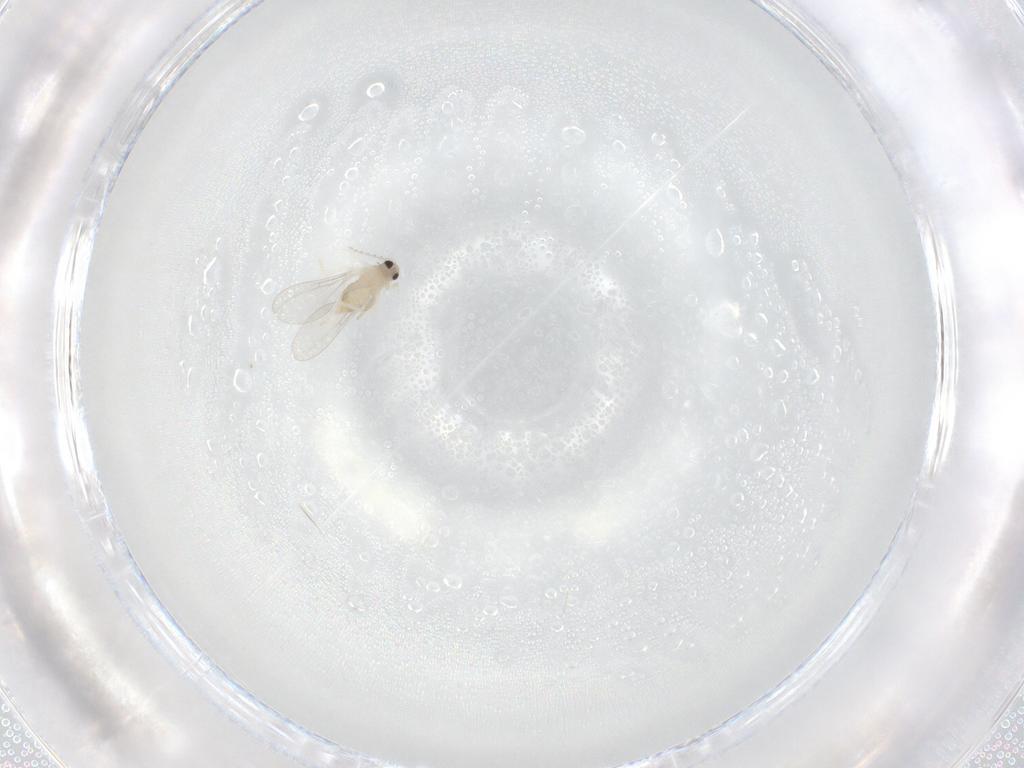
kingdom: Animalia
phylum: Arthropoda
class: Insecta
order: Diptera
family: Cecidomyiidae
